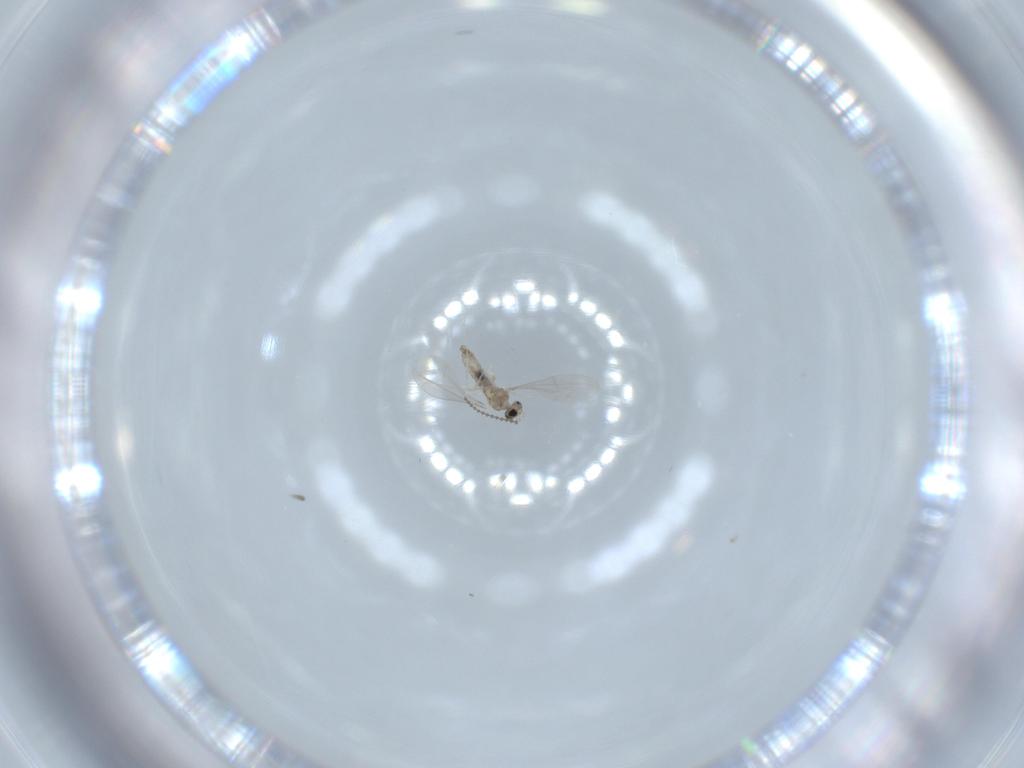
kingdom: Animalia
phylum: Arthropoda
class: Insecta
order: Diptera
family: Cecidomyiidae
